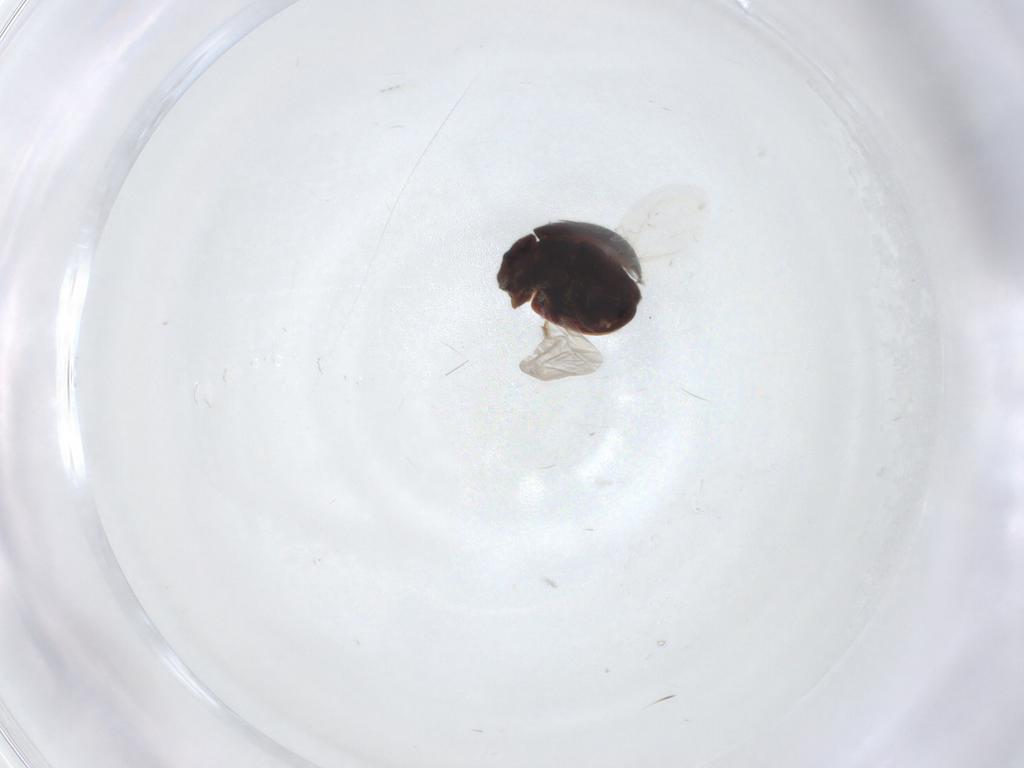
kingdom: Animalia
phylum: Arthropoda
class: Insecta
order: Coleoptera
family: Coccinellidae
